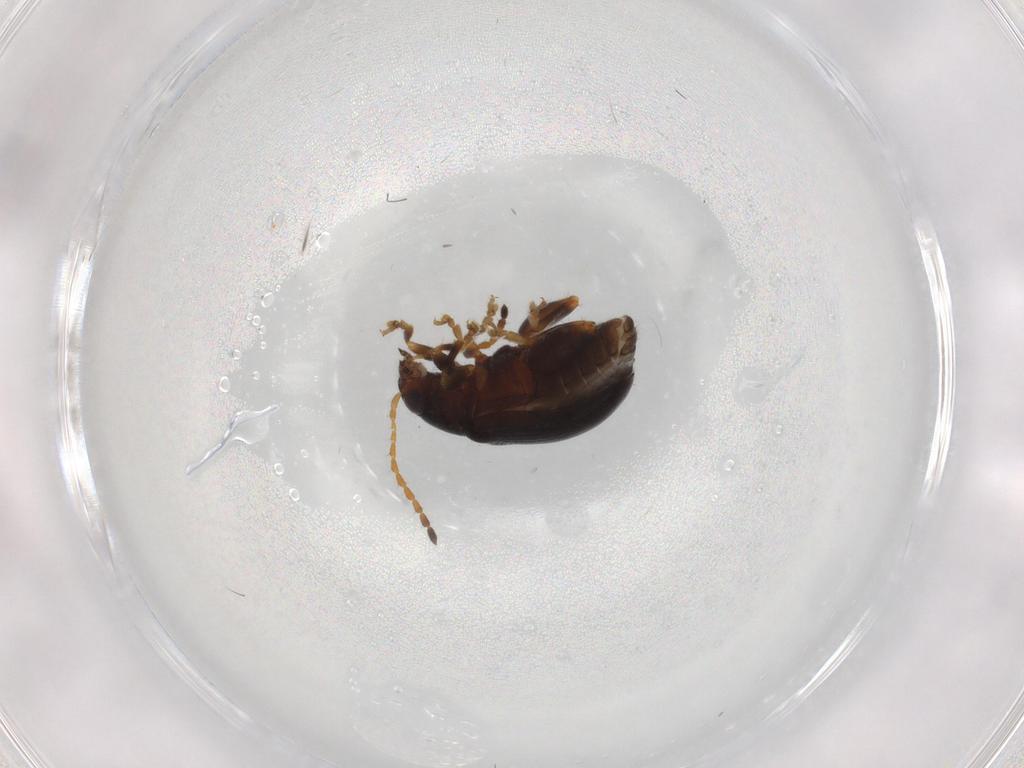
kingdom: Animalia
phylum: Arthropoda
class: Insecta
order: Coleoptera
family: Chrysomelidae
